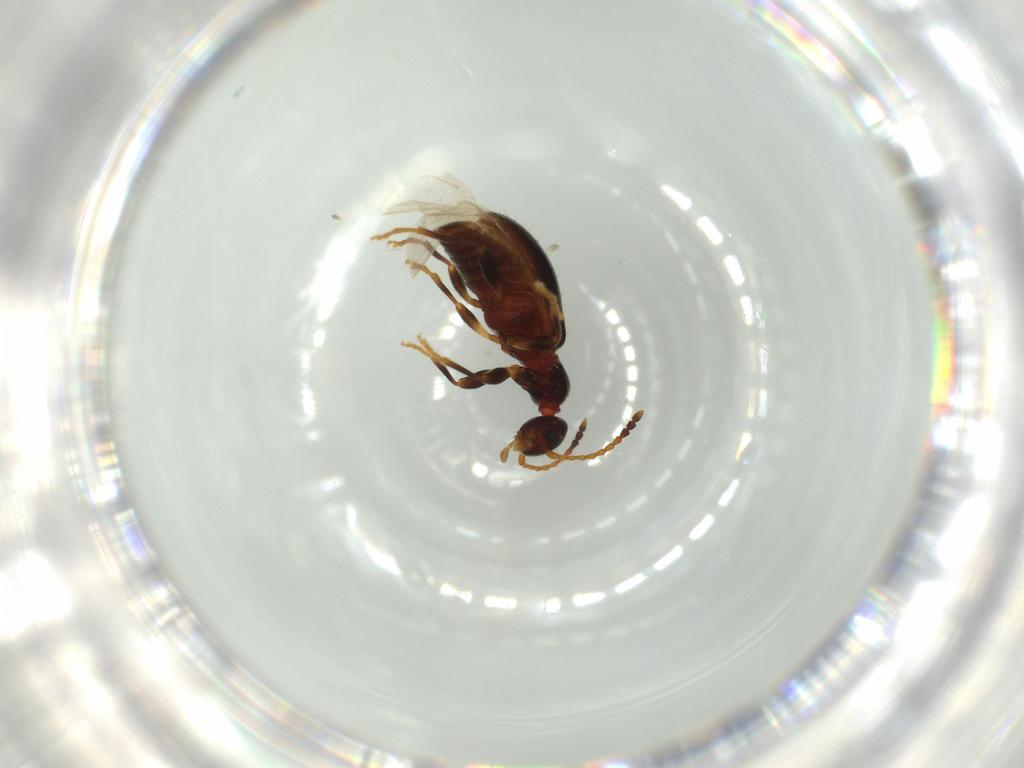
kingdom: Animalia
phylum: Arthropoda
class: Insecta
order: Coleoptera
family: Anthicidae
